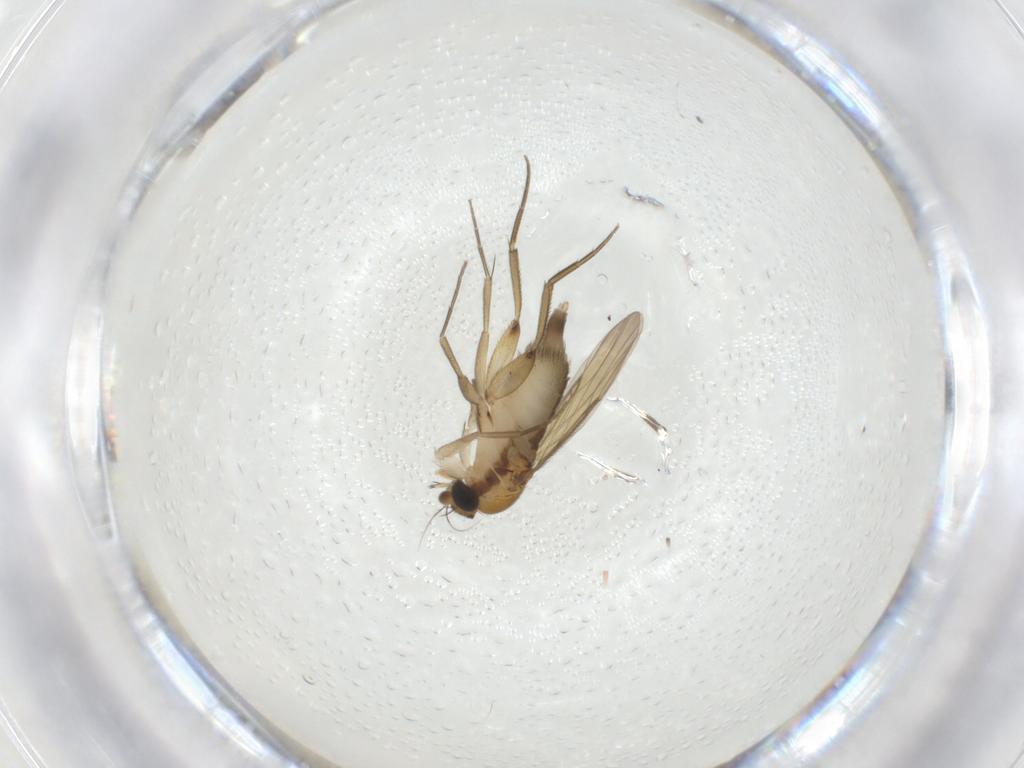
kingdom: Animalia
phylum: Arthropoda
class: Insecta
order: Diptera
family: Phoridae
